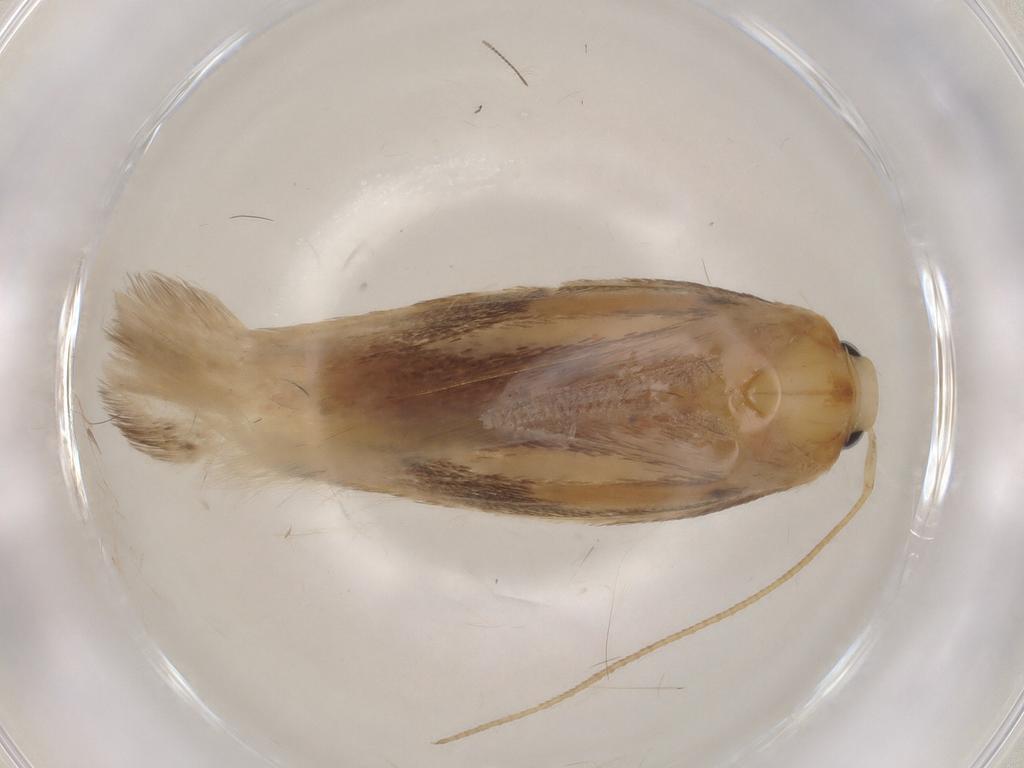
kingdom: Animalia
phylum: Arthropoda
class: Insecta
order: Lepidoptera
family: Geometridae
